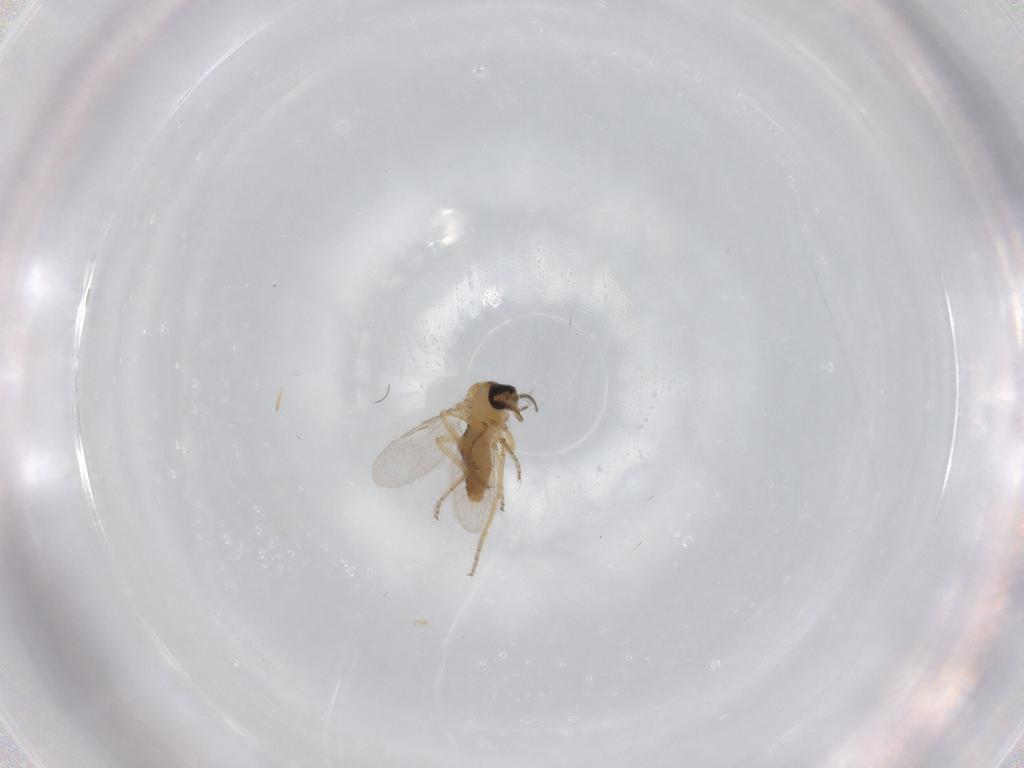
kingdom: Animalia
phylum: Arthropoda
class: Insecta
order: Diptera
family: Ceratopogonidae
